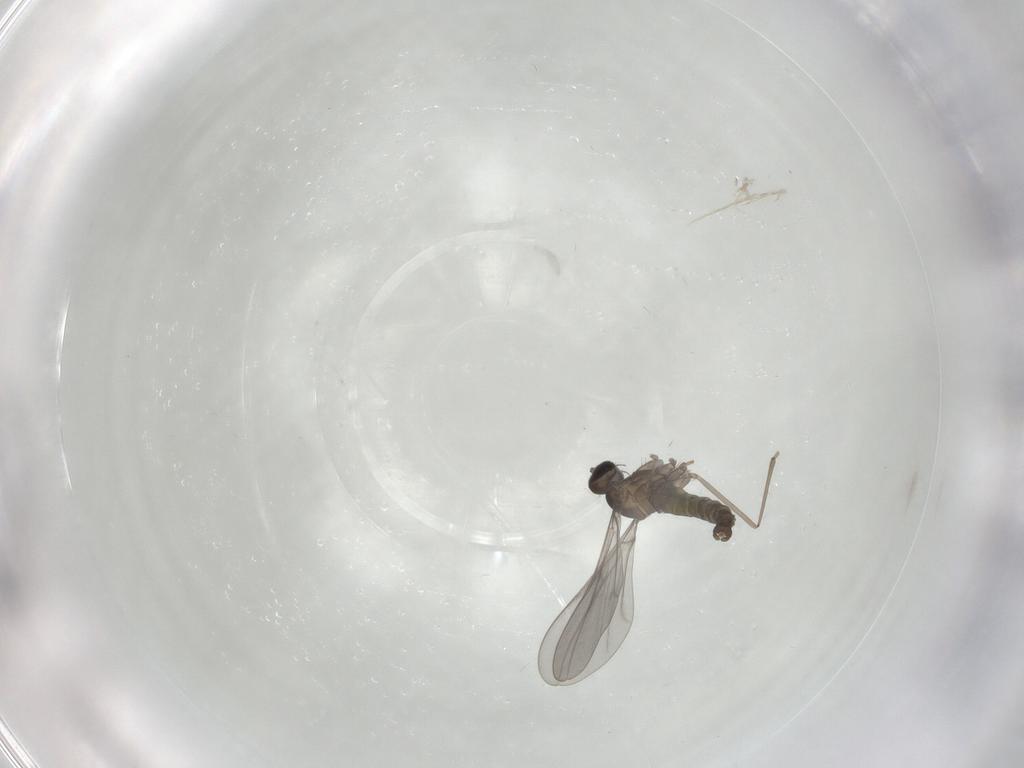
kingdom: Animalia
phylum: Arthropoda
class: Insecta
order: Diptera
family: Cecidomyiidae
